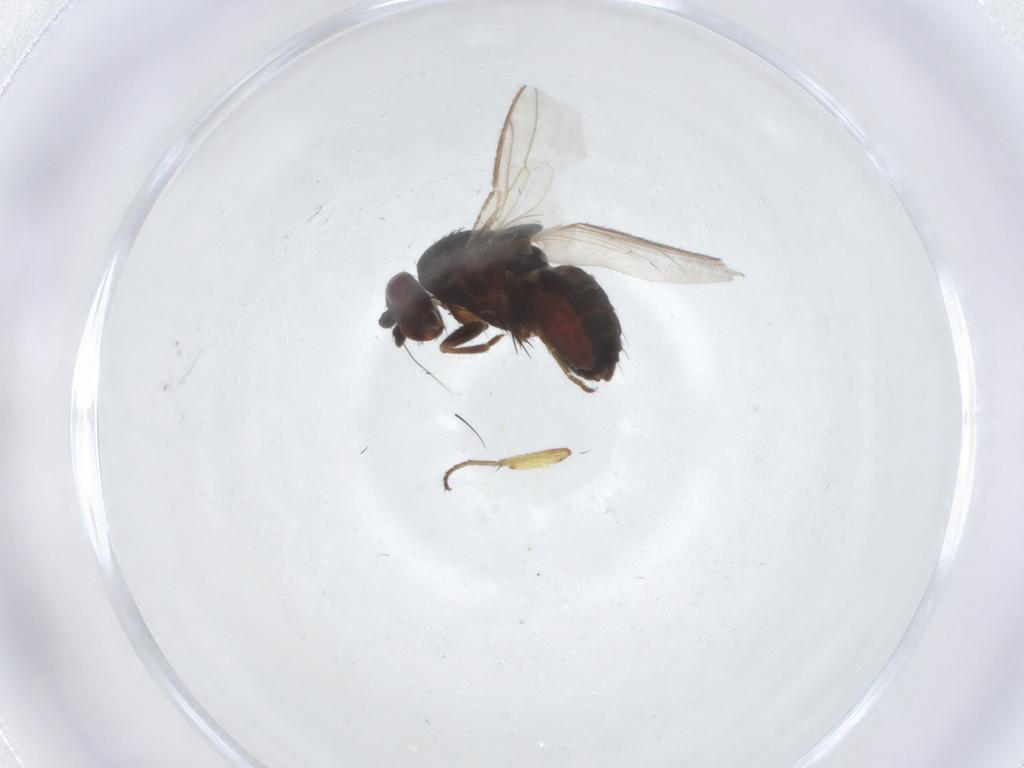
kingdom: Animalia
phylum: Arthropoda
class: Insecta
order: Diptera
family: Sphaeroceridae
